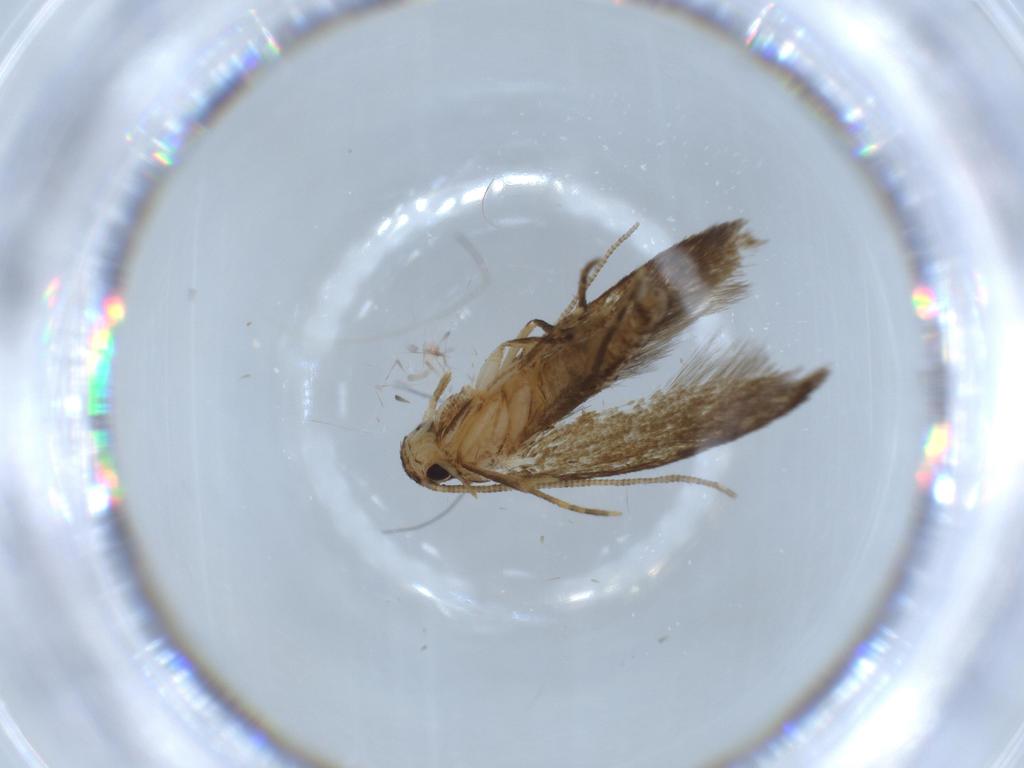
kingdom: Animalia
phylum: Arthropoda
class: Insecta
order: Lepidoptera
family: Tineidae
